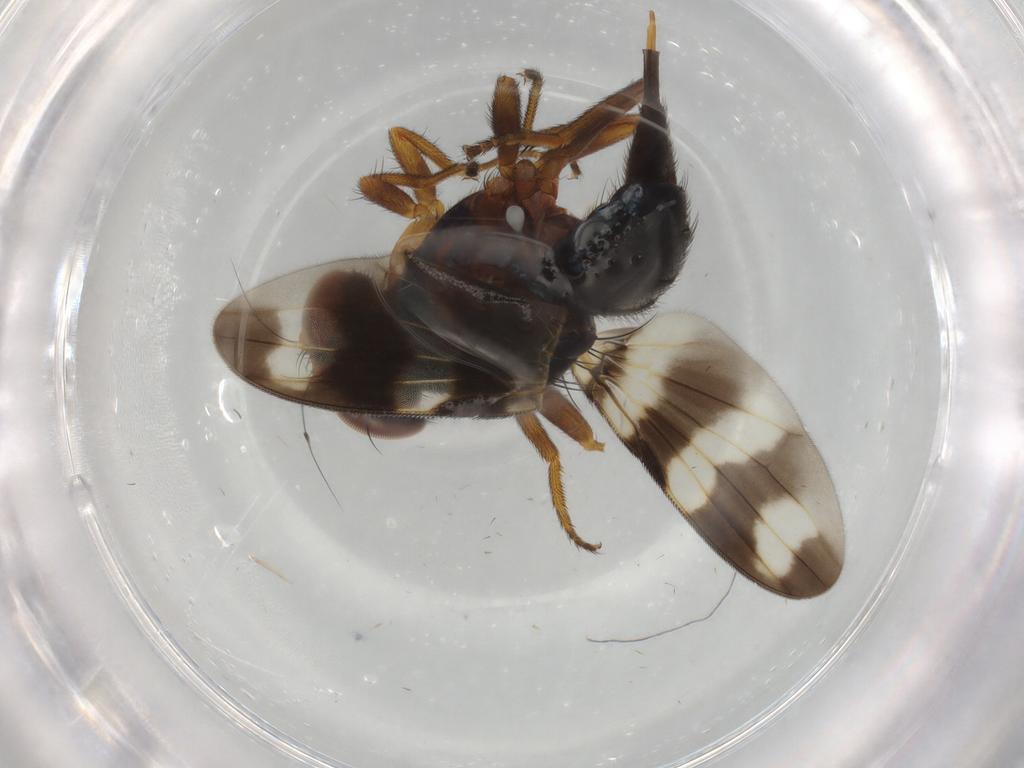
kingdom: Animalia
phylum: Arthropoda
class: Insecta
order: Diptera
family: Ulidiidae
